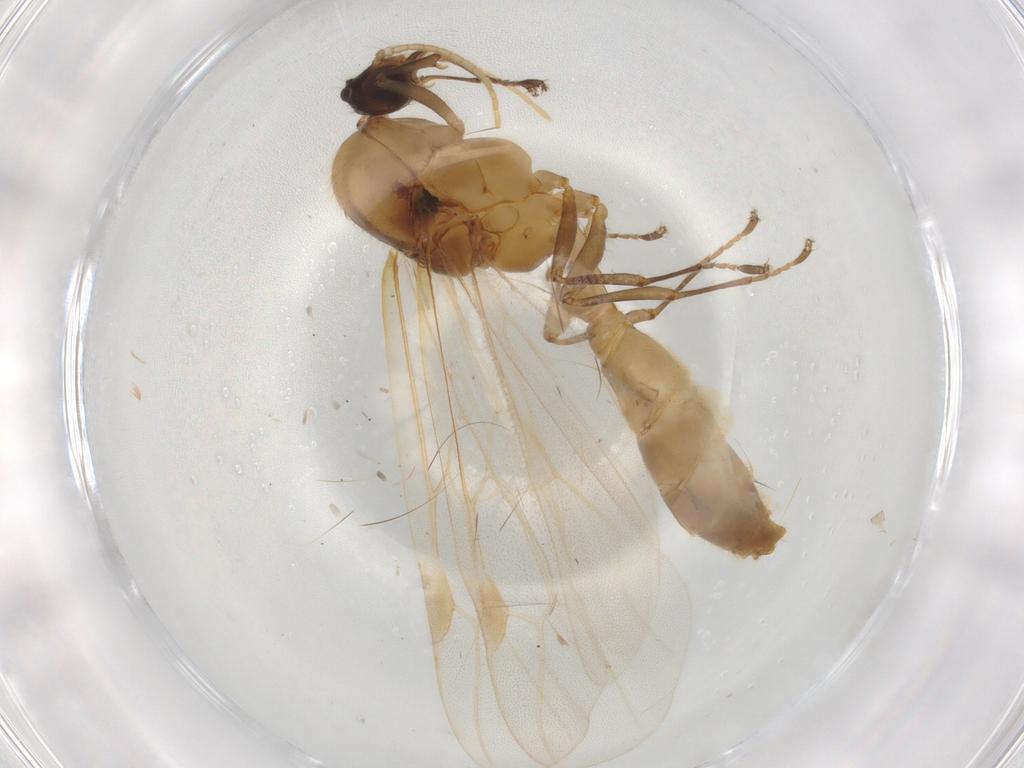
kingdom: Animalia
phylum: Arthropoda
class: Insecta
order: Hymenoptera
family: Formicidae
